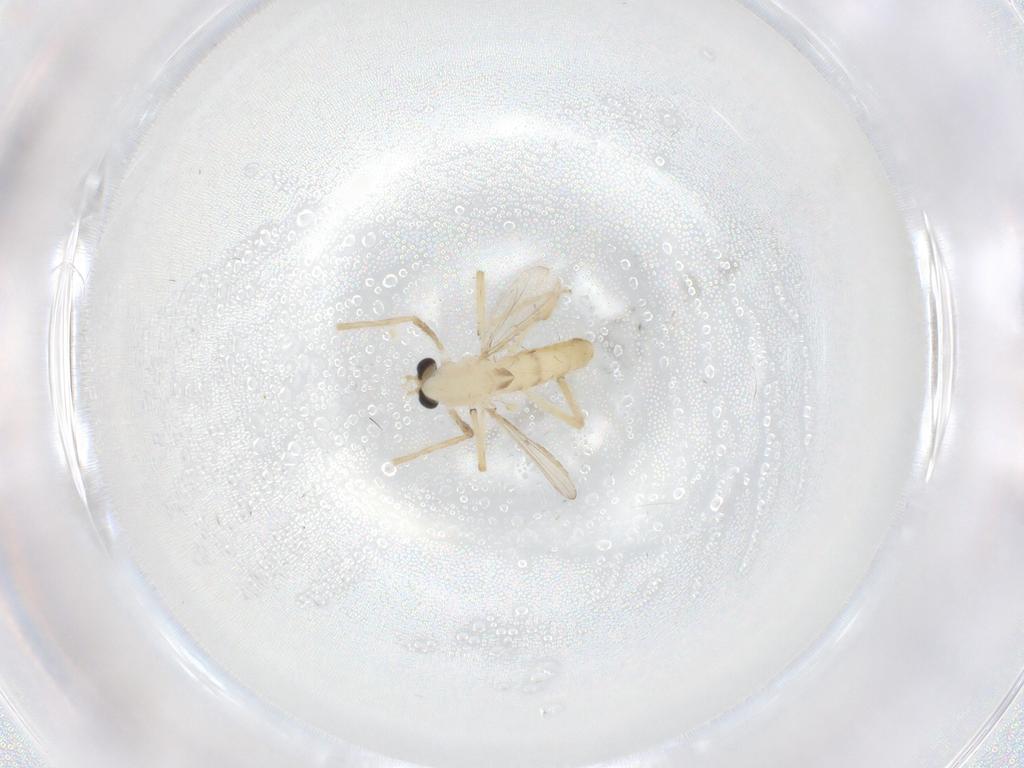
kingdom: Animalia
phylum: Arthropoda
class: Insecta
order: Diptera
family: Chironomidae
